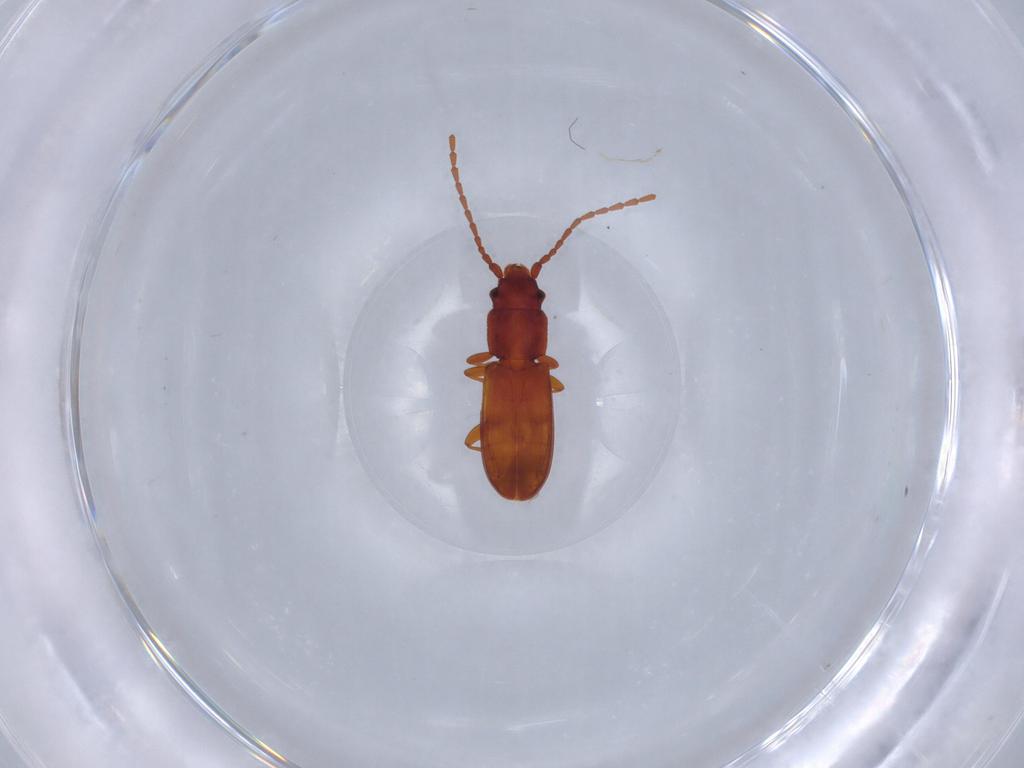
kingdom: Animalia
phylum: Arthropoda
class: Insecta
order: Coleoptera
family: Laemophloeidae
